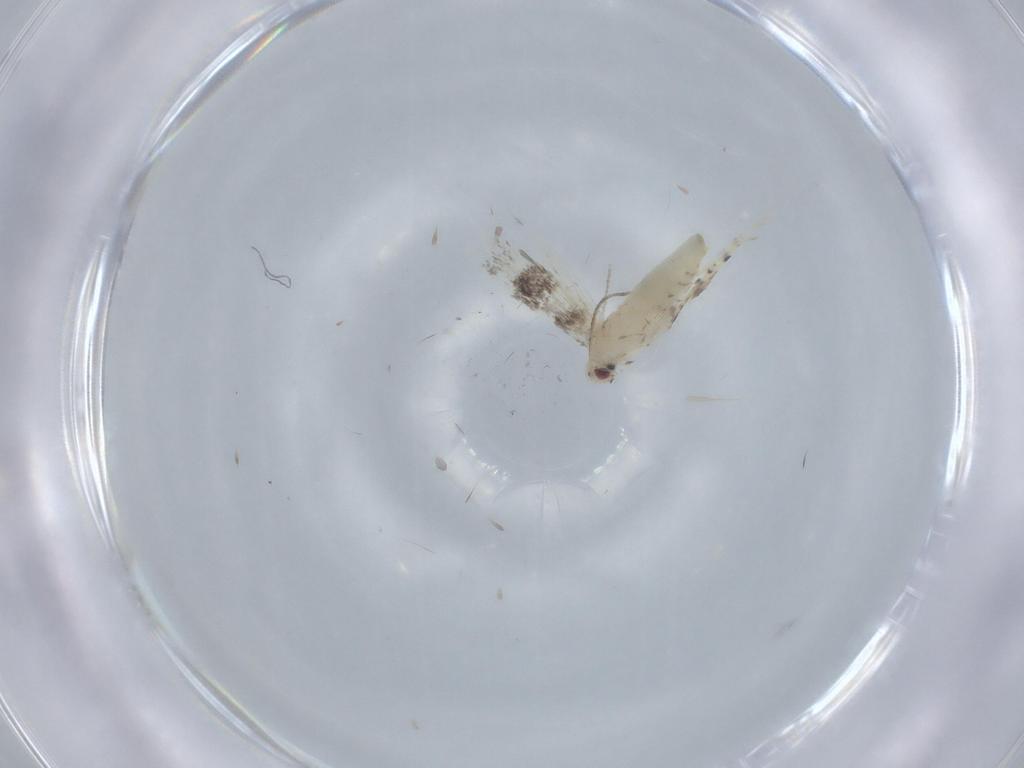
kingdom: Animalia
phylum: Arthropoda
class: Insecta
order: Lepidoptera
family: Gracillariidae
